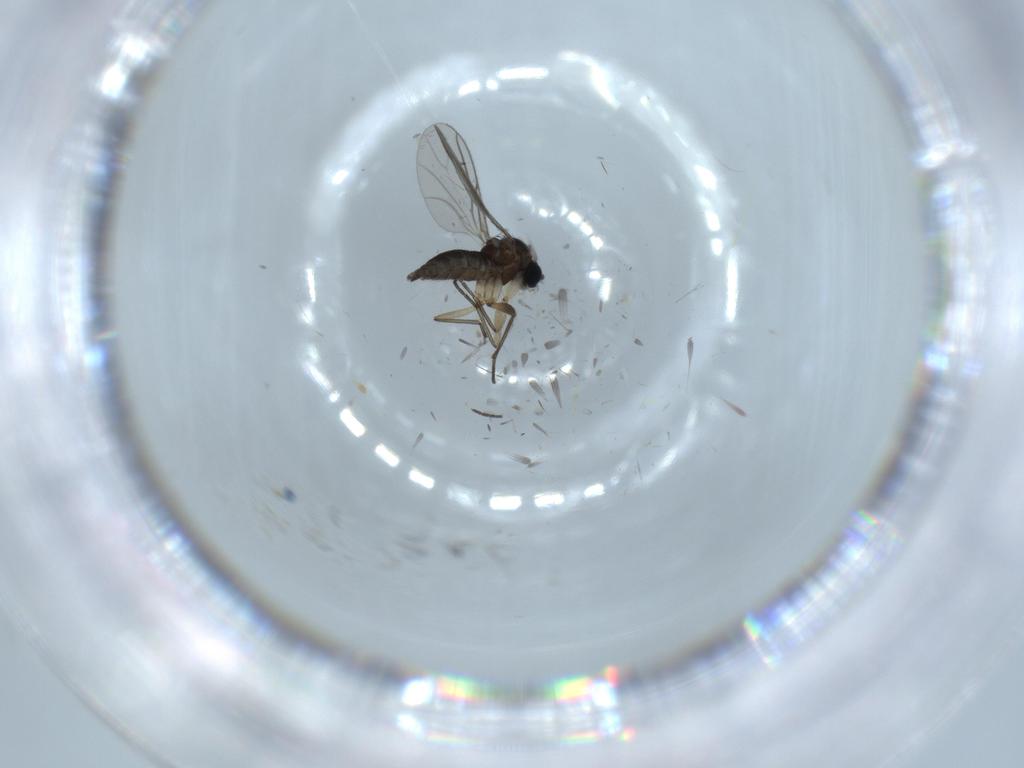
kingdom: Animalia
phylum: Arthropoda
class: Insecta
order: Diptera
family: Sciaridae
